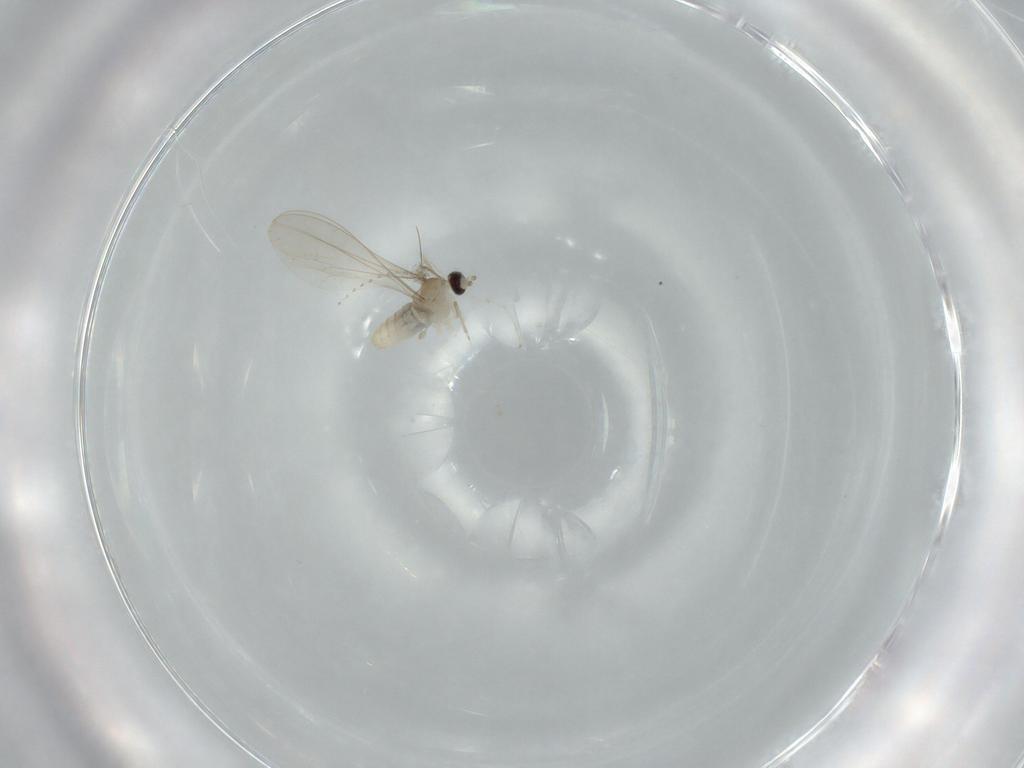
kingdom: Animalia
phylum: Arthropoda
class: Insecta
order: Diptera
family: Cecidomyiidae
